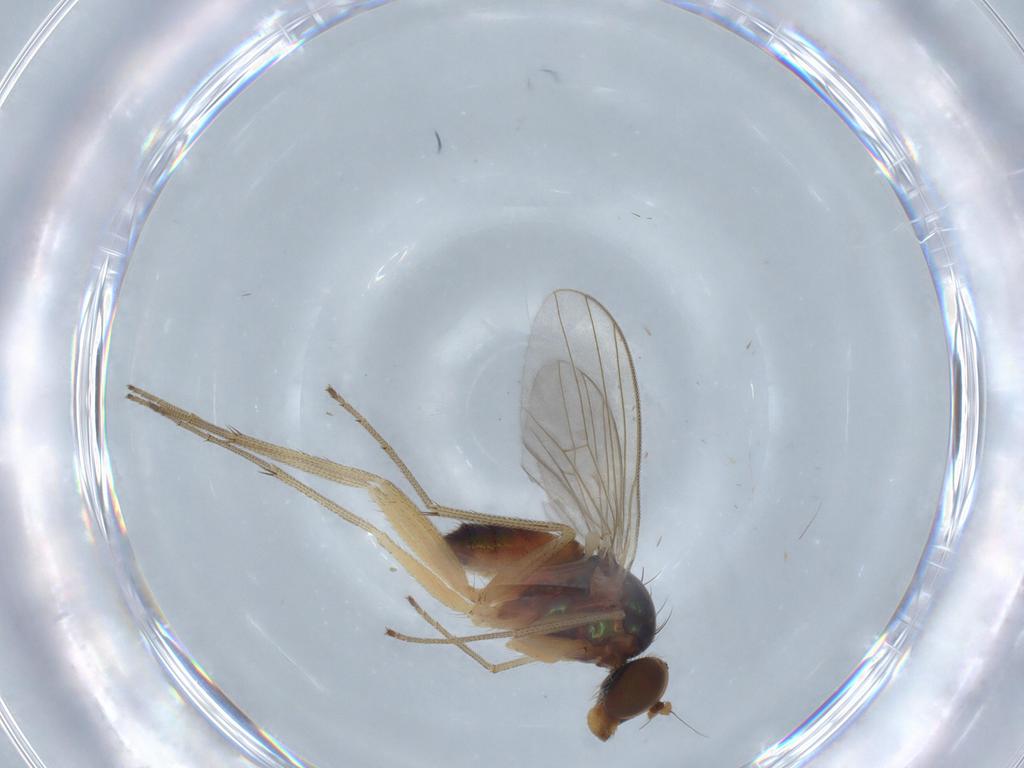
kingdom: Animalia
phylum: Arthropoda
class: Insecta
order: Diptera
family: Dolichopodidae
